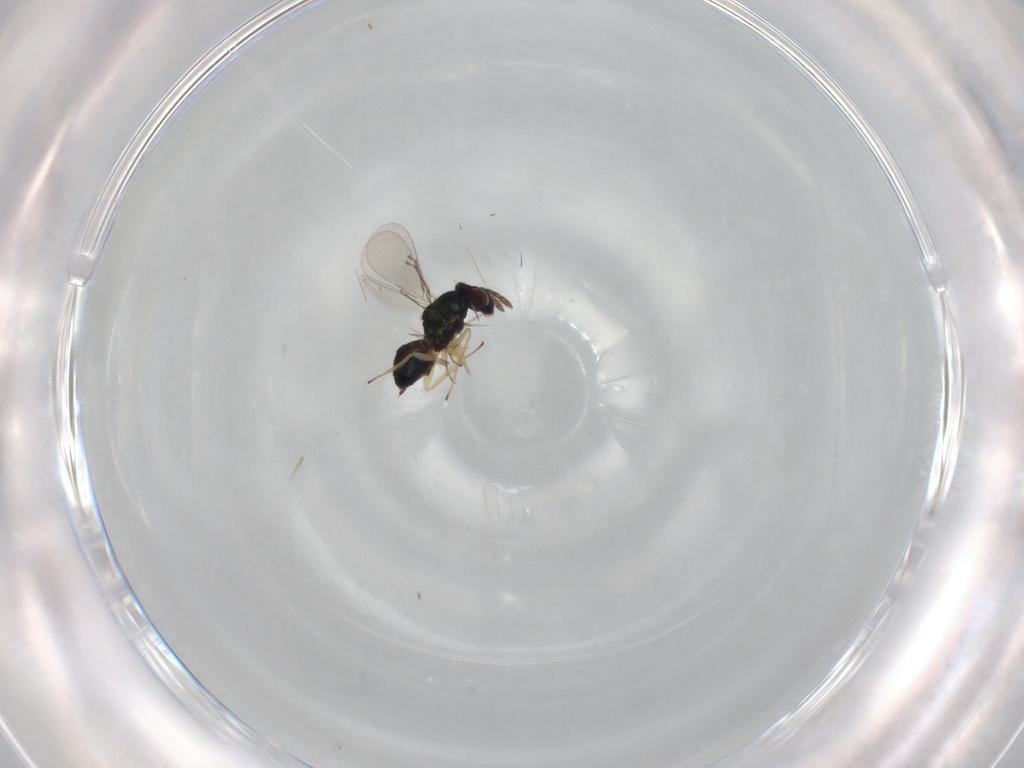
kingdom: Animalia
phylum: Arthropoda
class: Insecta
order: Hymenoptera
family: Eulophidae
